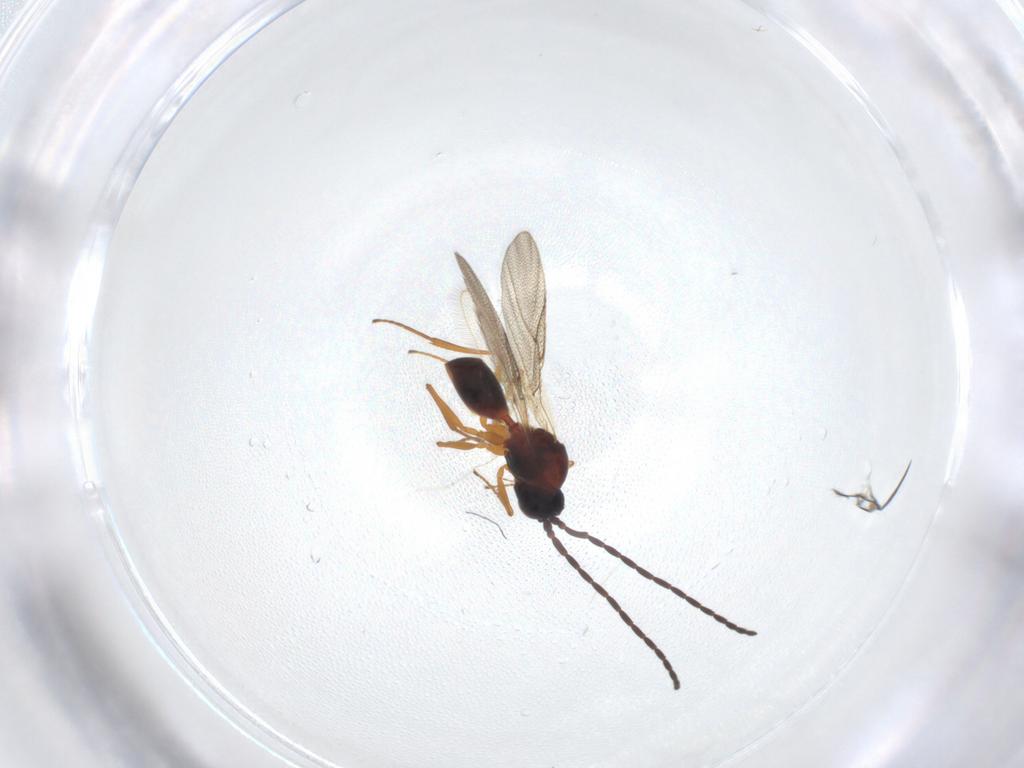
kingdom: Animalia
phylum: Arthropoda
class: Insecta
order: Hymenoptera
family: Figitidae
